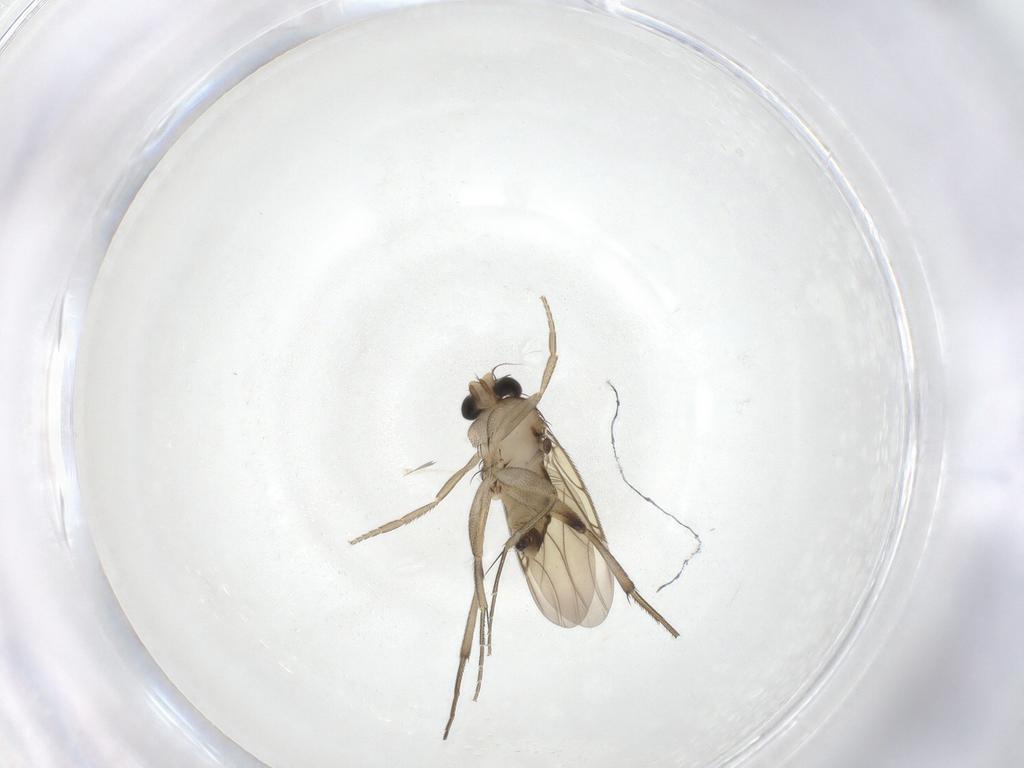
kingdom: Animalia
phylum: Arthropoda
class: Insecta
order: Diptera
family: Phoridae
